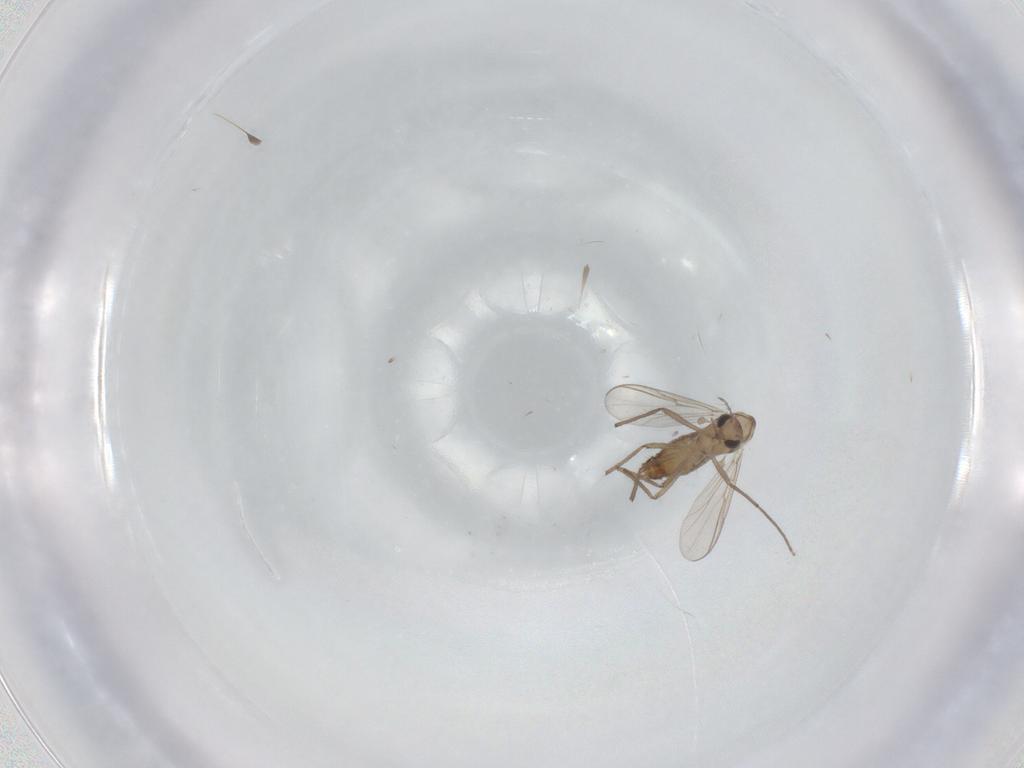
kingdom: Animalia
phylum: Arthropoda
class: Insecta
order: Diptera
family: Chironomidae
